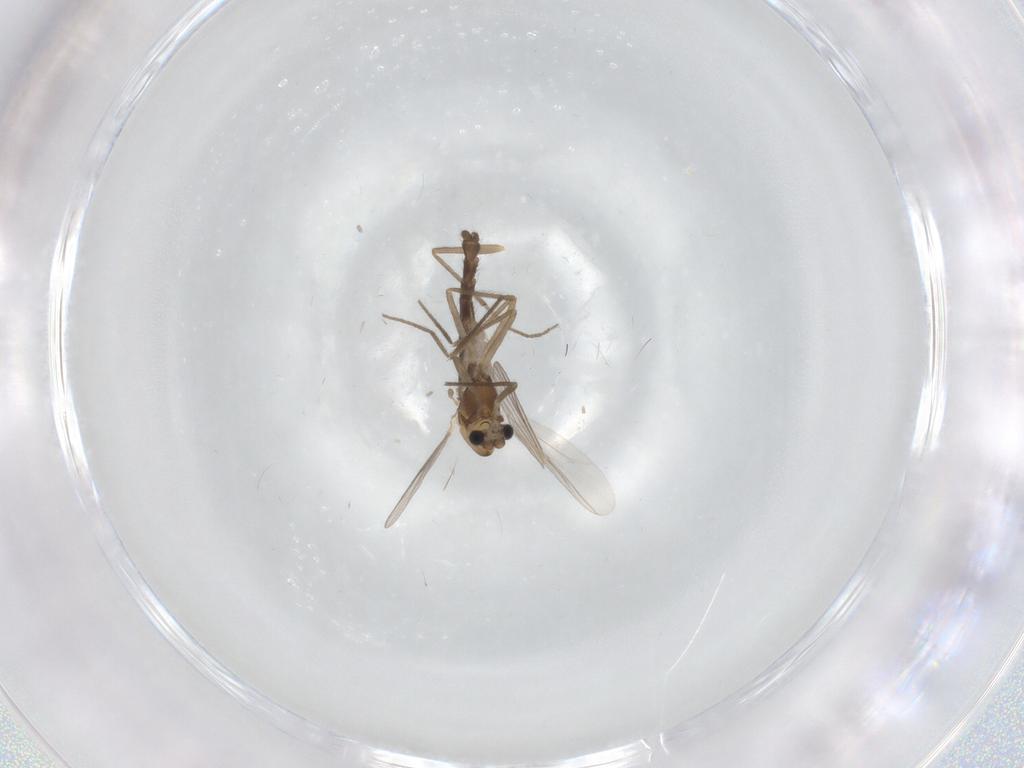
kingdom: Animalia
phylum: Arthropoda
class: Insecta
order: Diptera
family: Chironomidae
